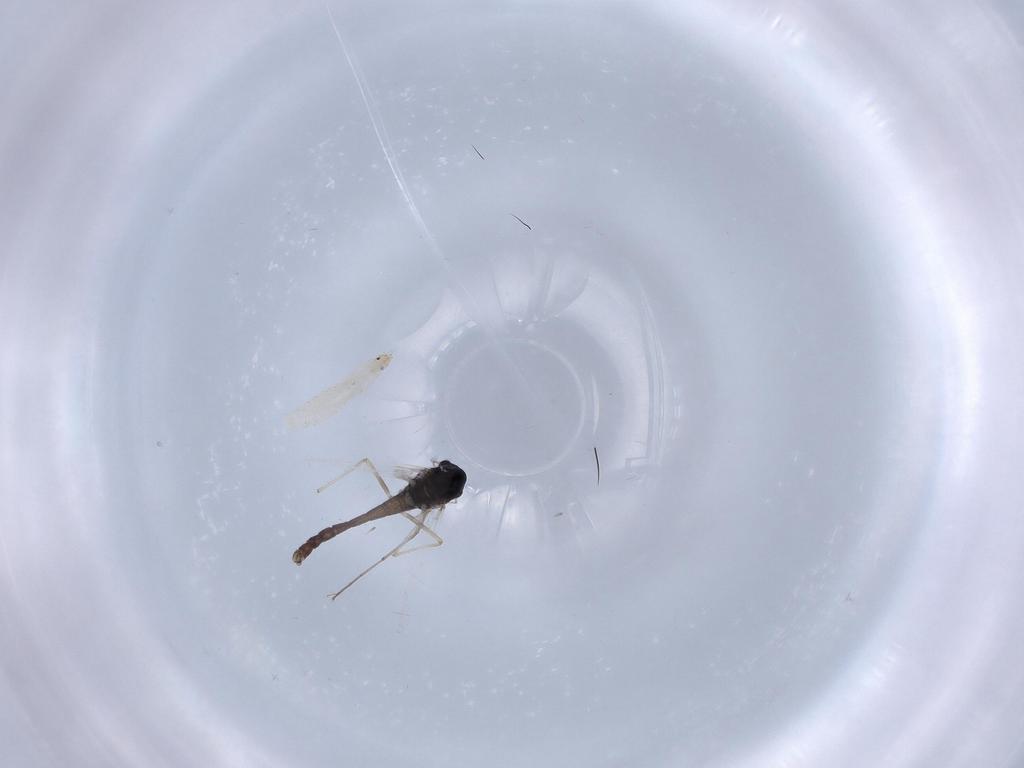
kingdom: Animalia
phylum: Arthropoda
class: Insecta
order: Diptera
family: Chironomidae
